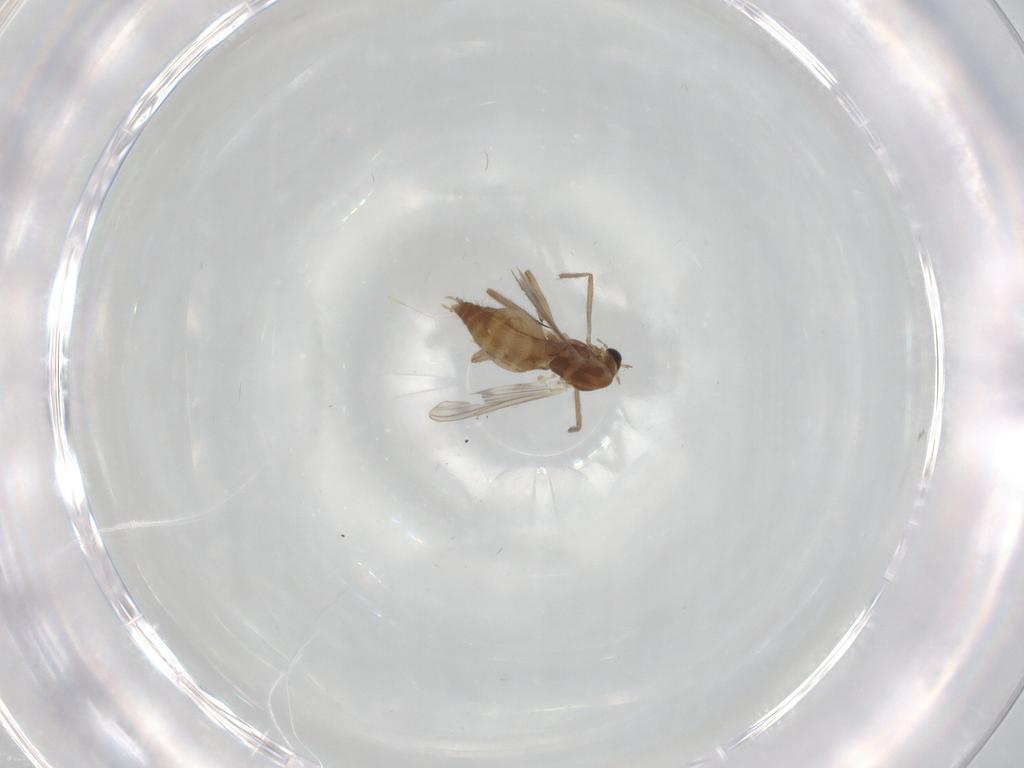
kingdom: Animalia
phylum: Arthropoda
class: Insecta
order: Diptera
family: Chironomidae
